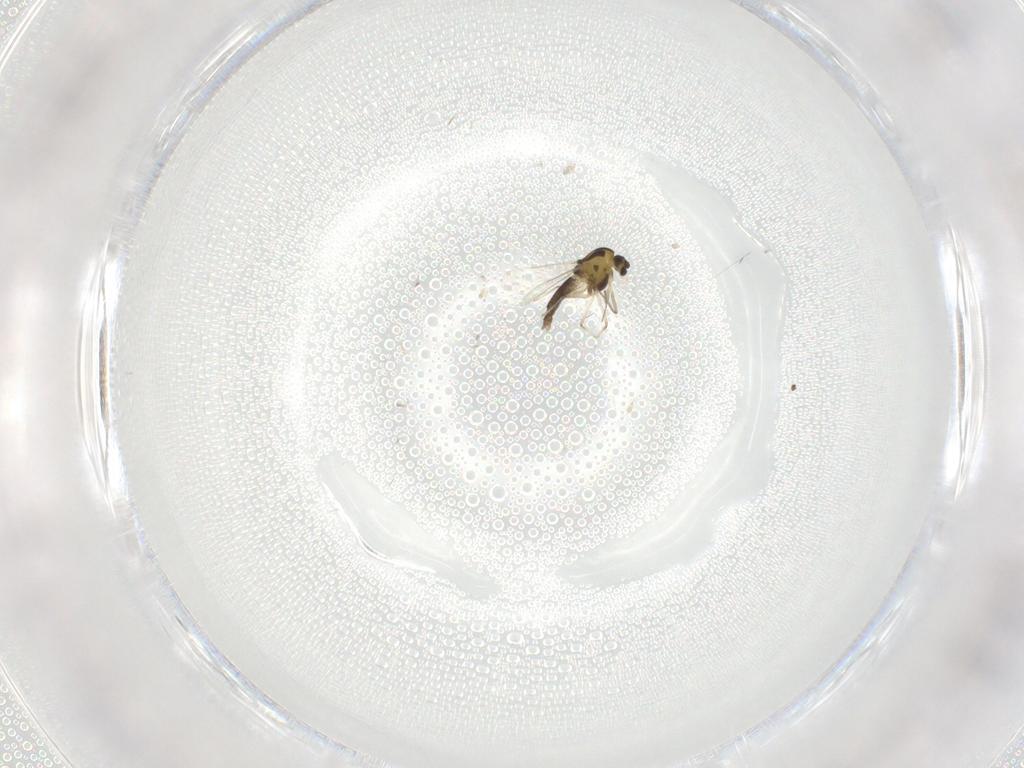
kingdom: Animalia
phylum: Arthropoda
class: Insecta
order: Diptera
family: Chironomidae
